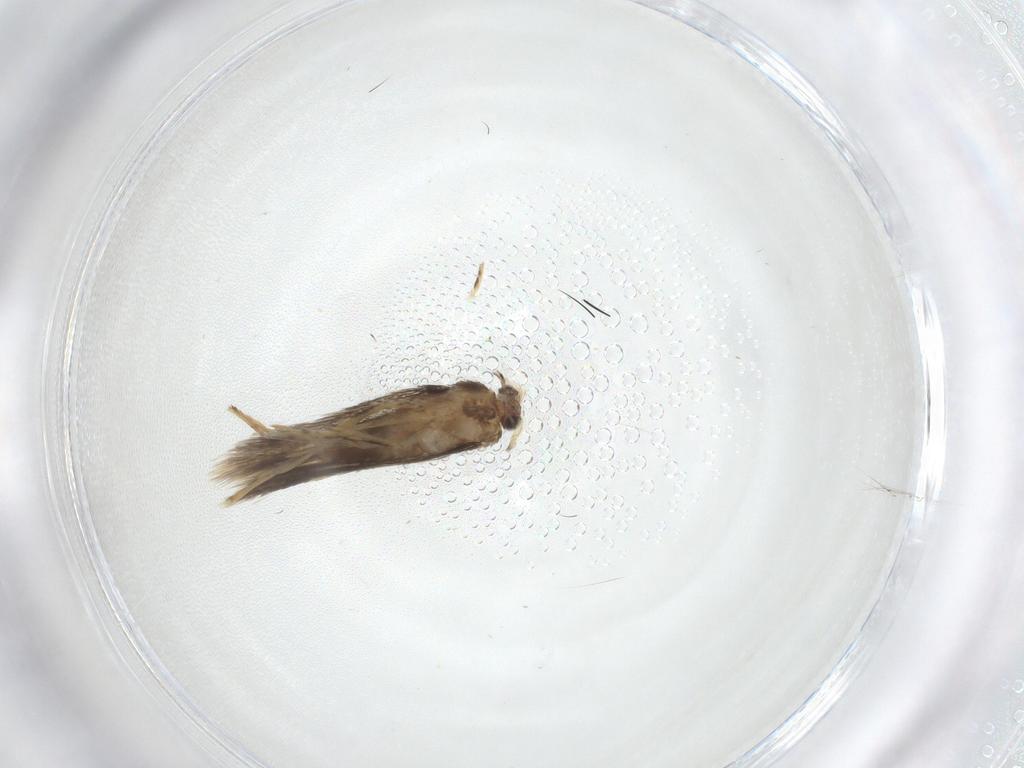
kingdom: Animalia
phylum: Arthropoda
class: Insecta
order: Lepidoptera
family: Nepticulidae
